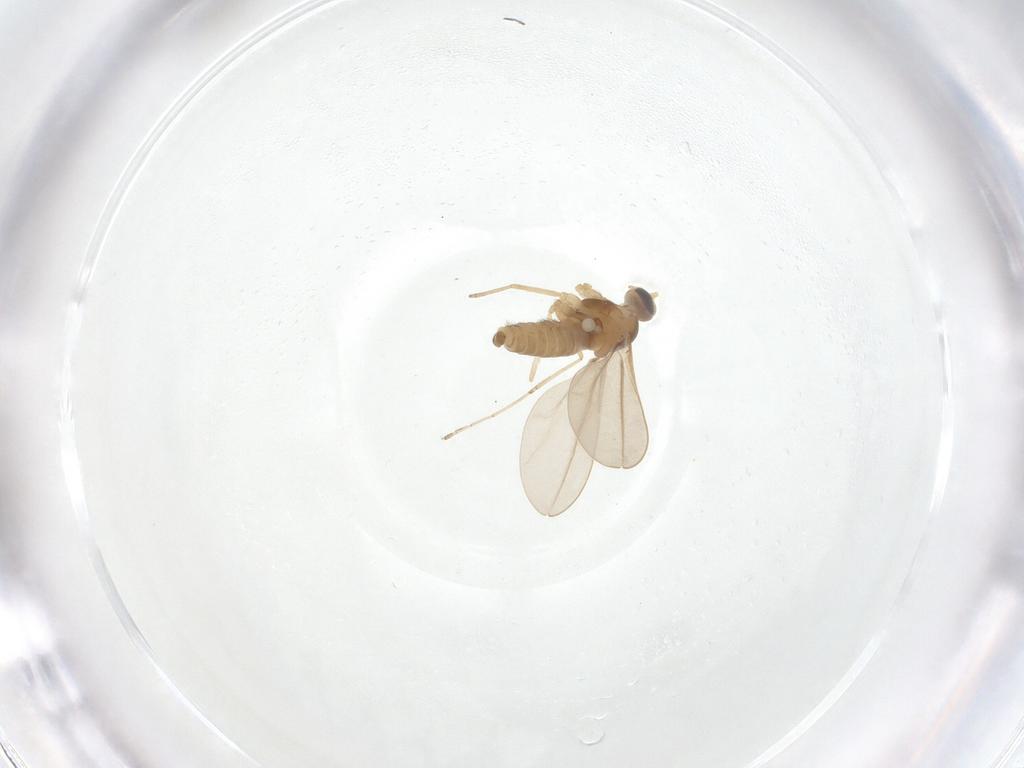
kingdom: Animalia
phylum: Arthropoda
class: Insecta
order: Diptera
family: Cecidomyiidae
